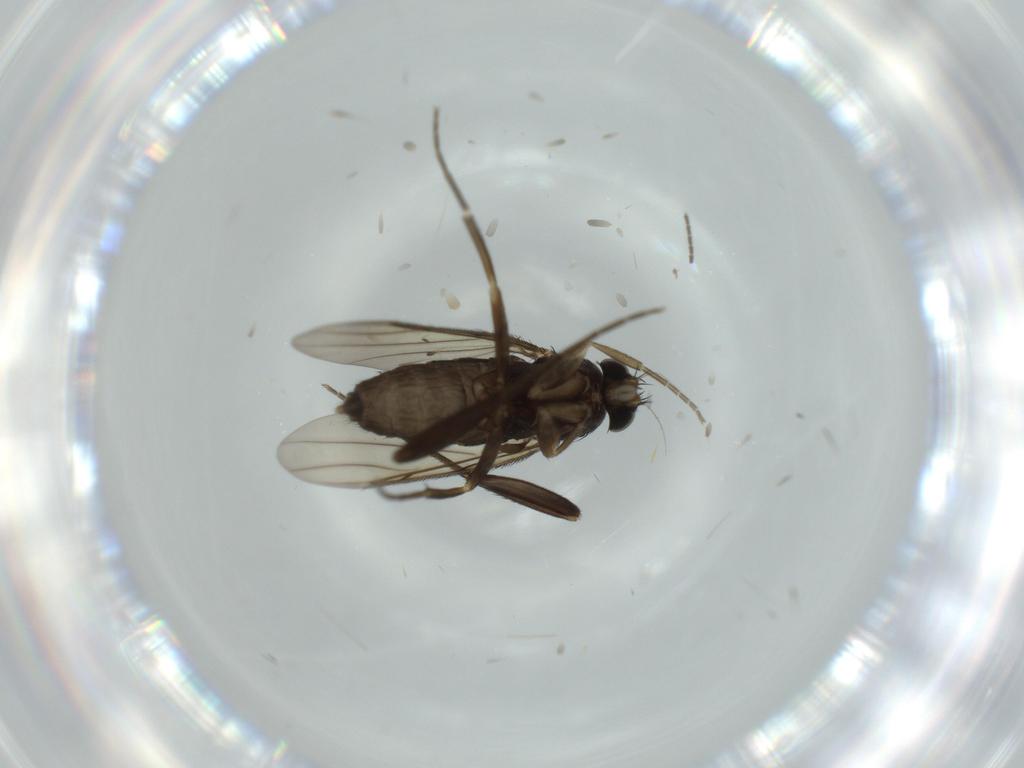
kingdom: Animalia
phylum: Arthropoda
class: Insecta
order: Diptera
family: Phoridae
